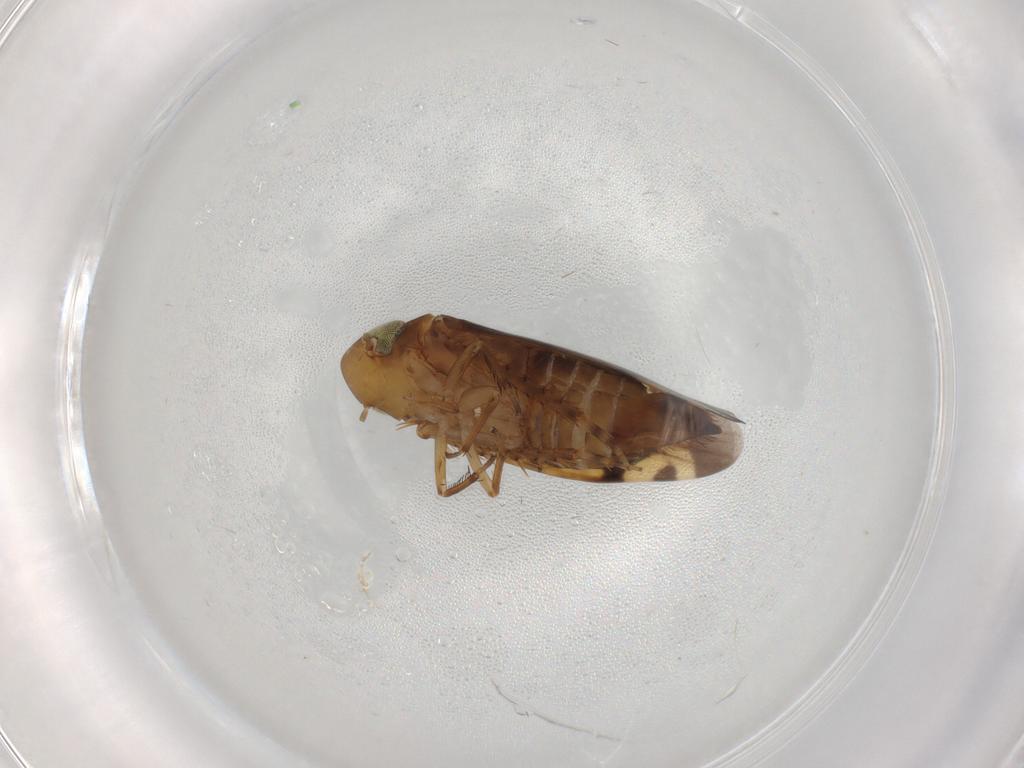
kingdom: Animalia
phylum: Arthropoda
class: Insecta
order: Hemiptera
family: Cicadellidae
